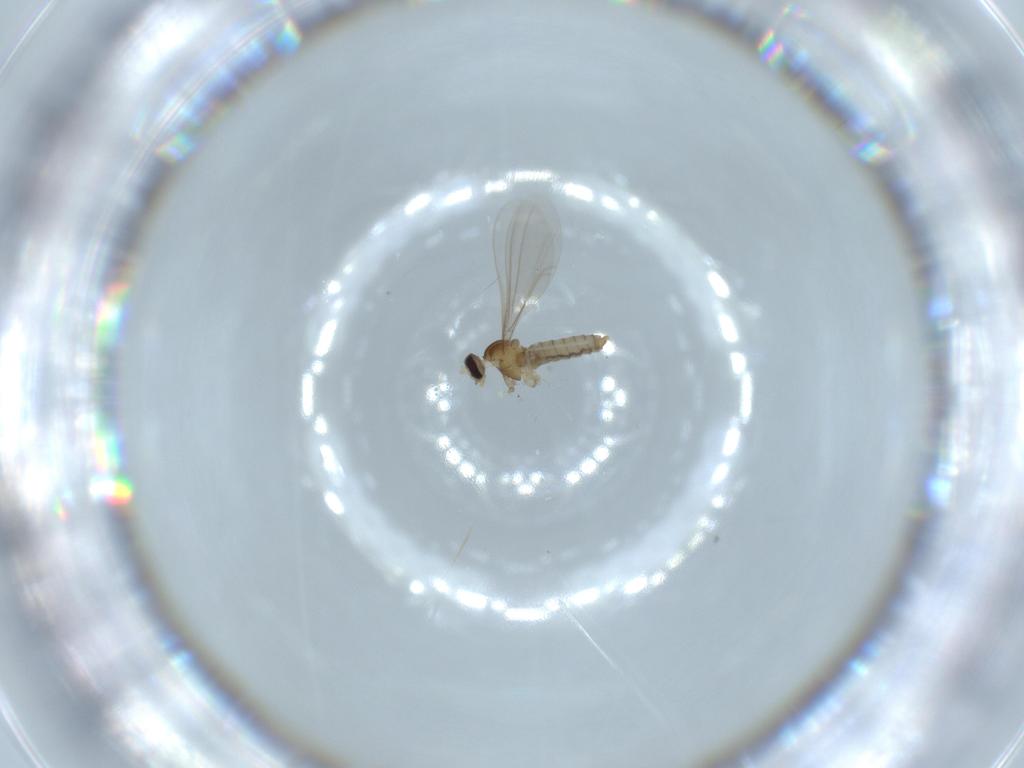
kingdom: Animalia
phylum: Arthropoda
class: Insecta
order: Diptera
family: Cecidomyiidae
